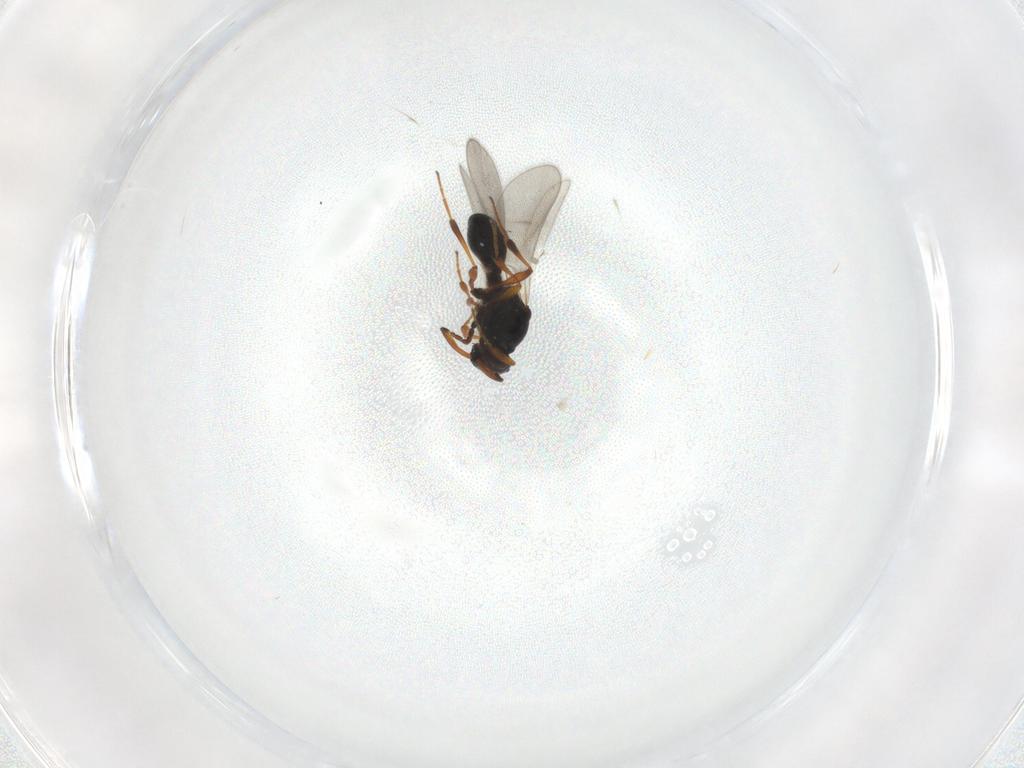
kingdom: Animalia
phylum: Arthropoda
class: Insecta
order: Hymenoptera
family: Platygastridae
